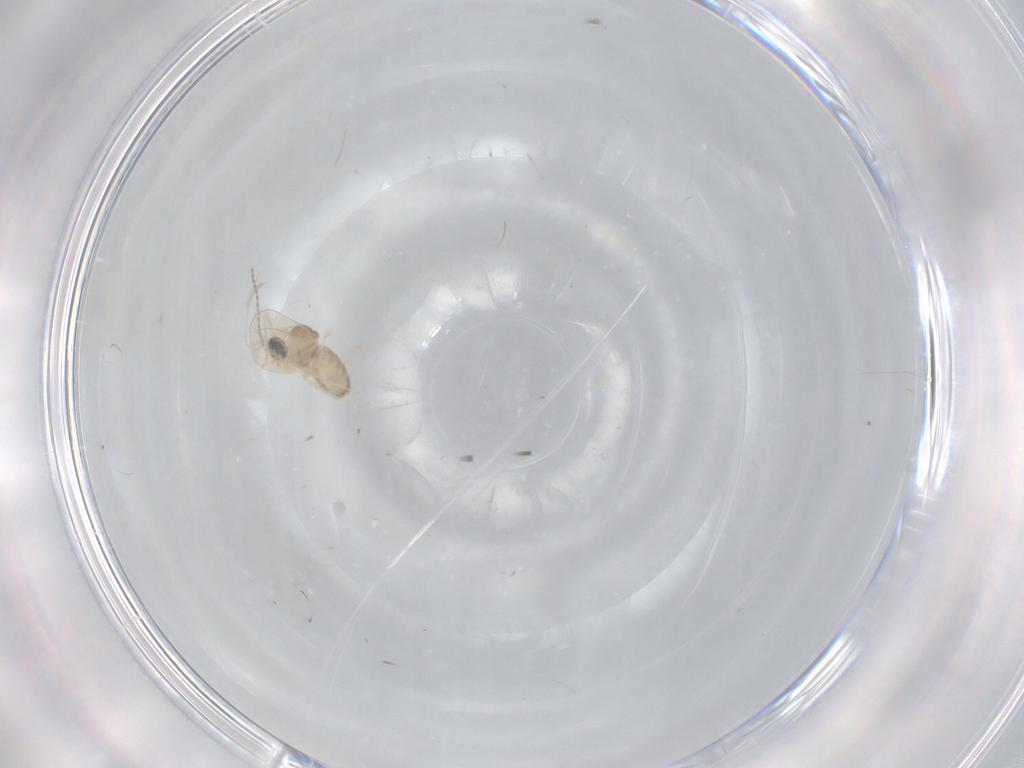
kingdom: Animalia
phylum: Arthropoda
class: Insecta
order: Diptera
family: Cecidomyiidae
